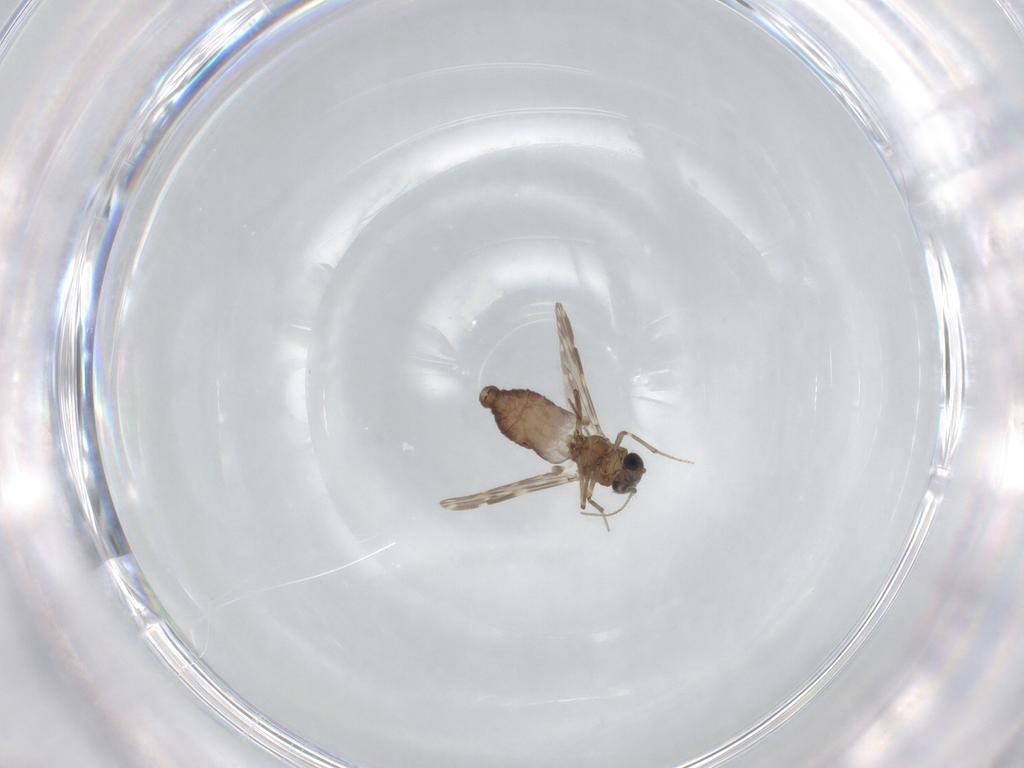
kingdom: Animalia
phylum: Arthropoda
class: Insecta
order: Diptera
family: Ceratopogonidae
